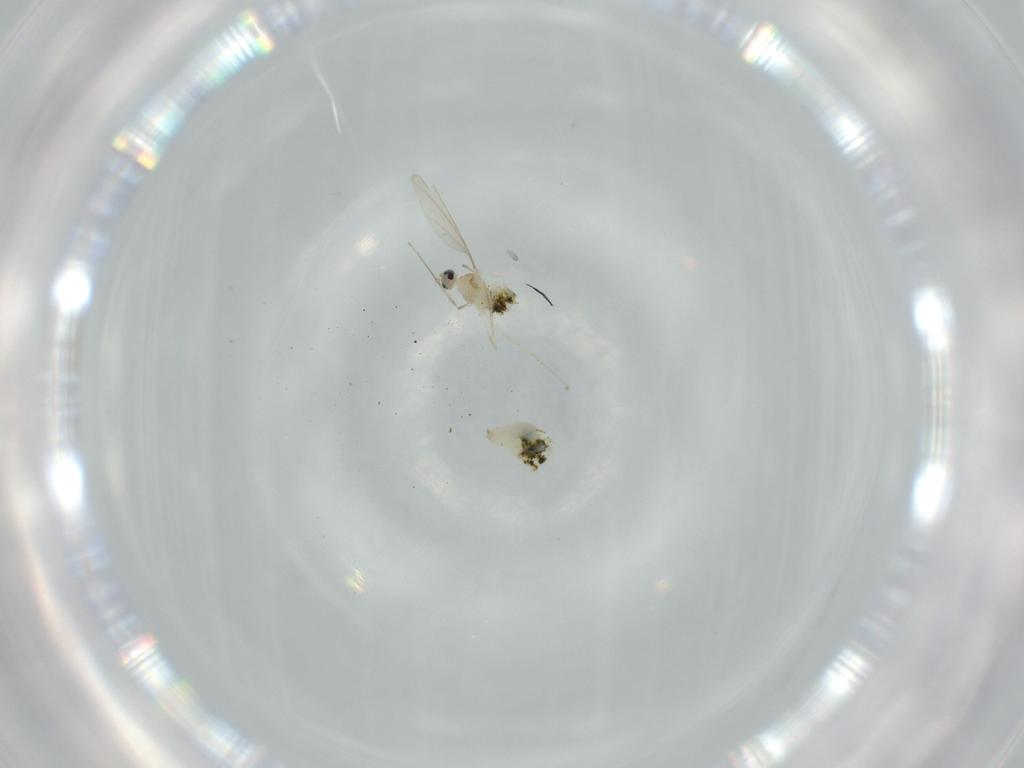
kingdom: Animalia
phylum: Arthropoda
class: Insecta
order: Diptera
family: Cecidomyiidae
